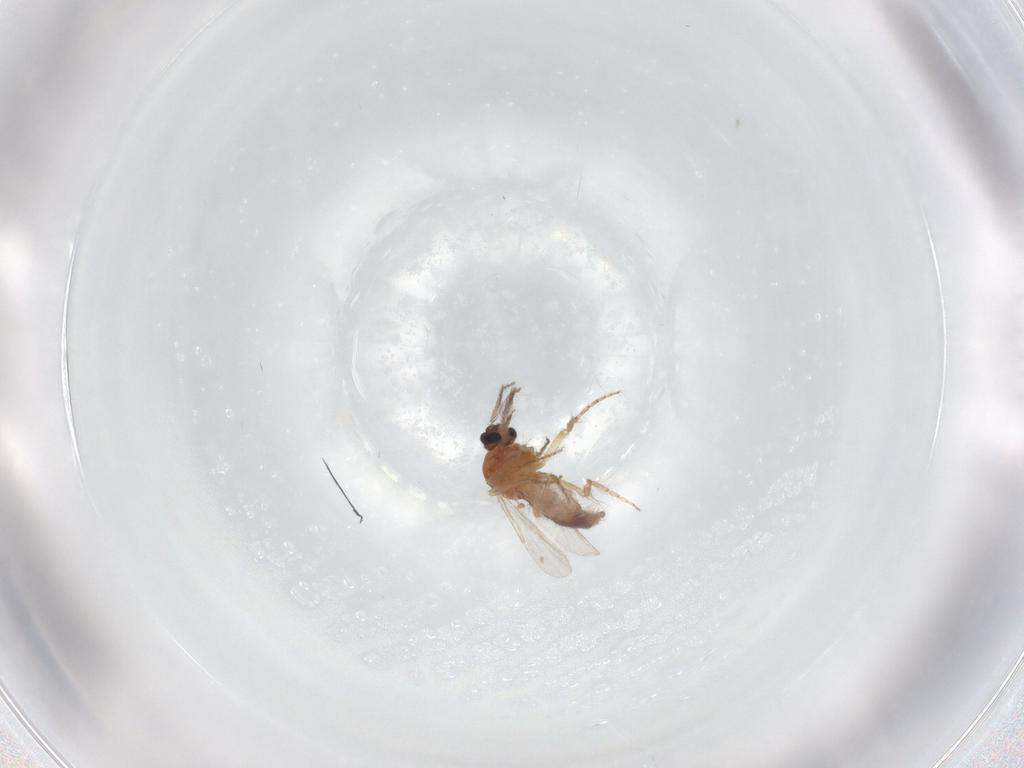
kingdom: Animalia
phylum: Arthropoda
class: Insecta
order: Diptera
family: Ceratopogonidae
